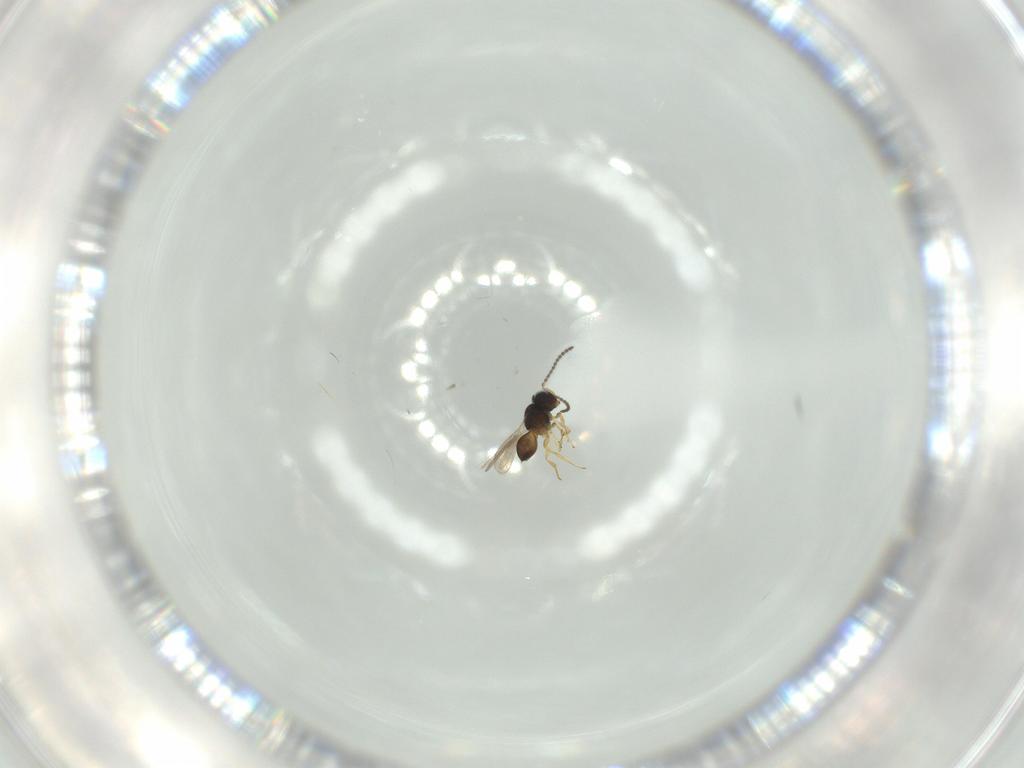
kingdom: Animalia
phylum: Arthropoda
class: Insecta
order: Hymenoptera
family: Scelionidae
